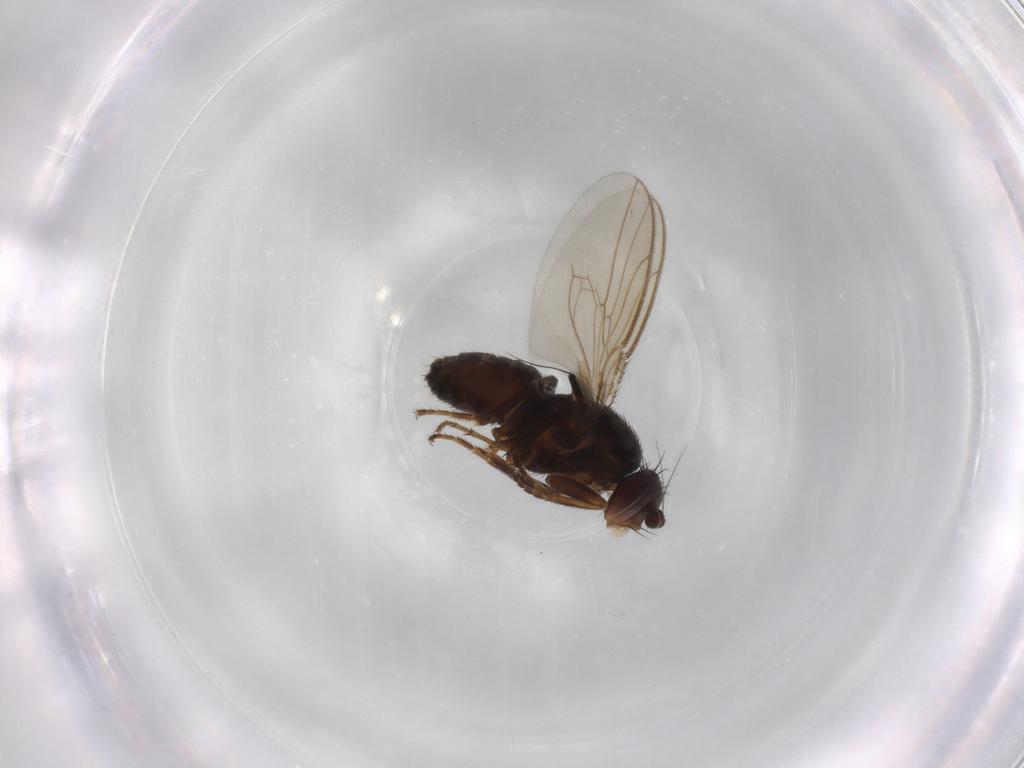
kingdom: Animalia
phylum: Arthropoda
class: Insecta
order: Diptera
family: Sphaeroceridae
